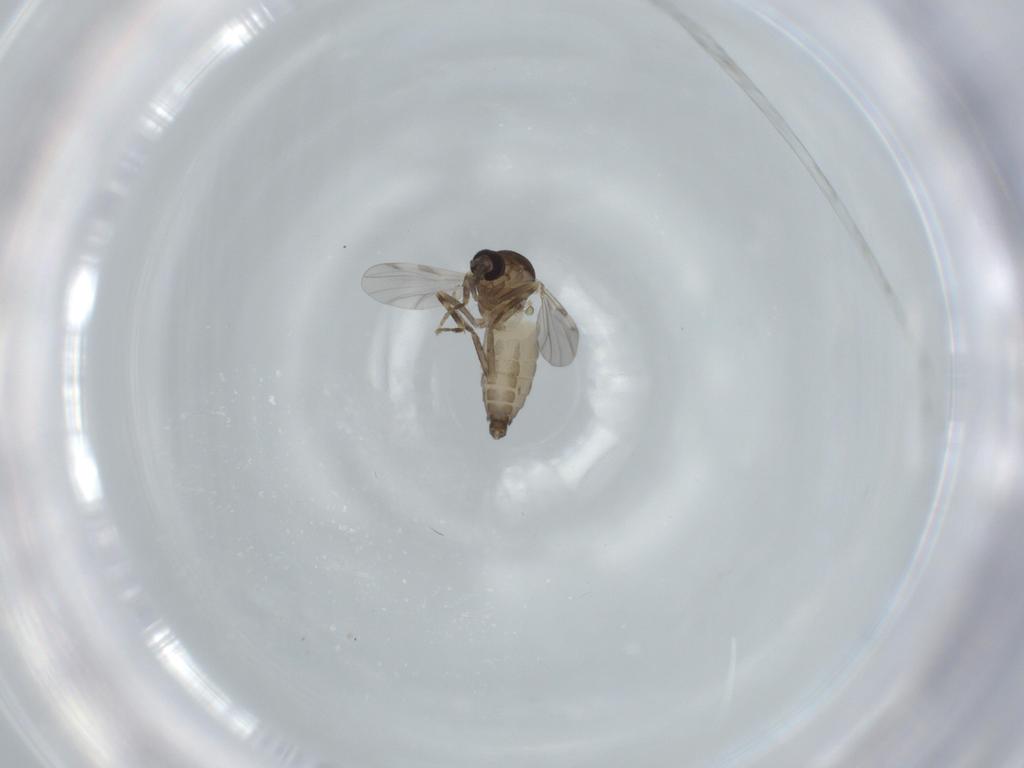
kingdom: Animalia
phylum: Arthropoda
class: Insecta
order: Diptera
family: Ceratopogonidae
